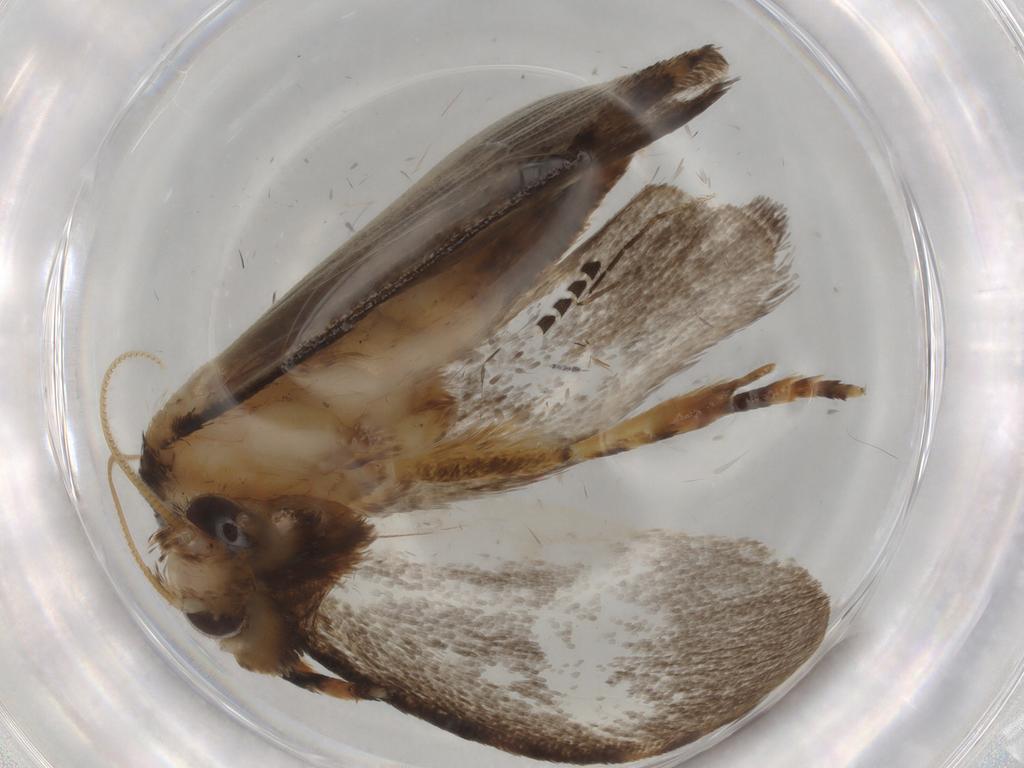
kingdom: Animalia
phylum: Arthropoda
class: Insecta
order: Lepidoptera
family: Tineidae
